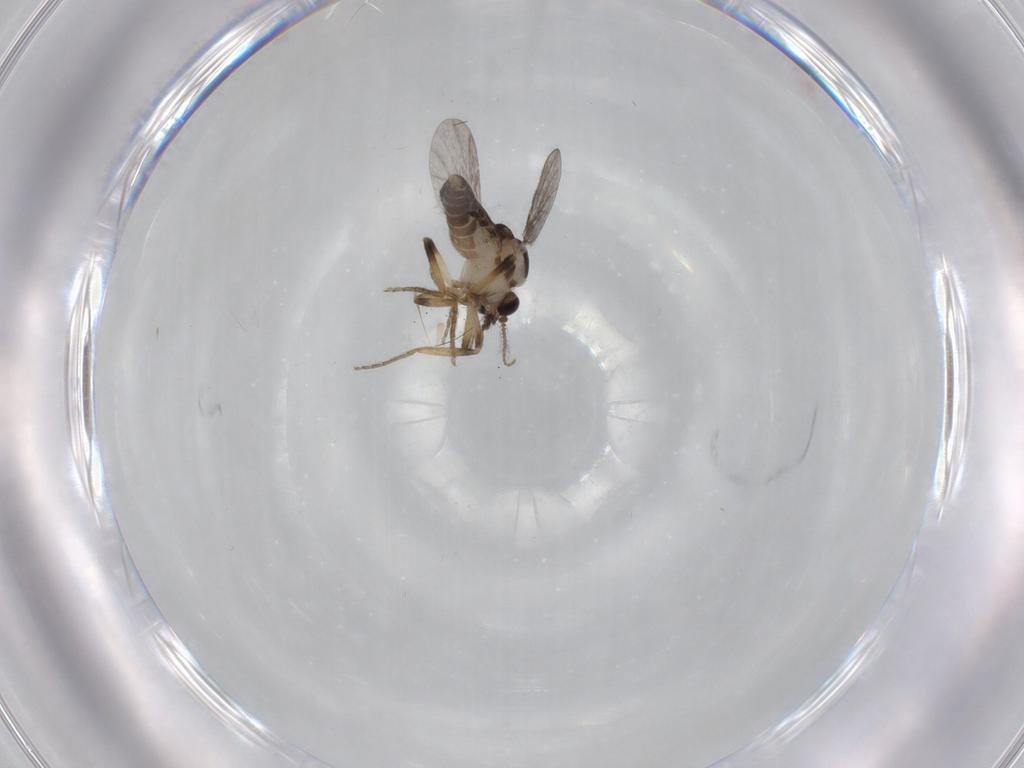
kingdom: Animalia
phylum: Arthropoda
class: Insecta
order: Diptera
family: Ceratopogonidae
